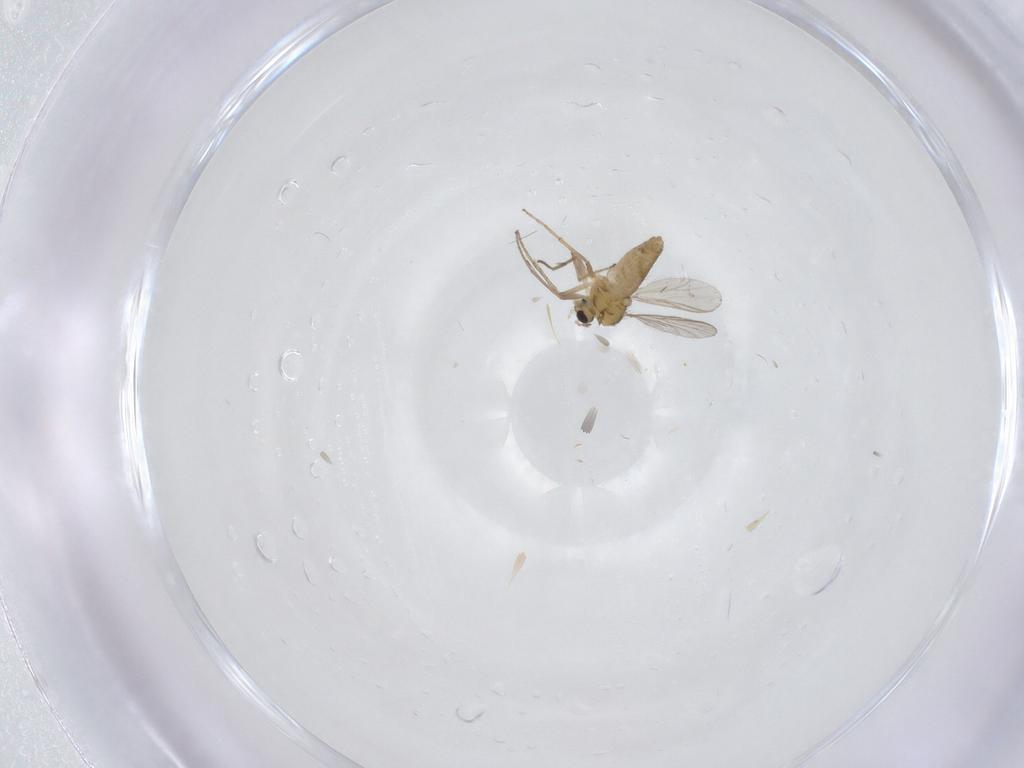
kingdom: Animalia
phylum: Arthropoda
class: Insecta
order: Diptera
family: Chironomidae
